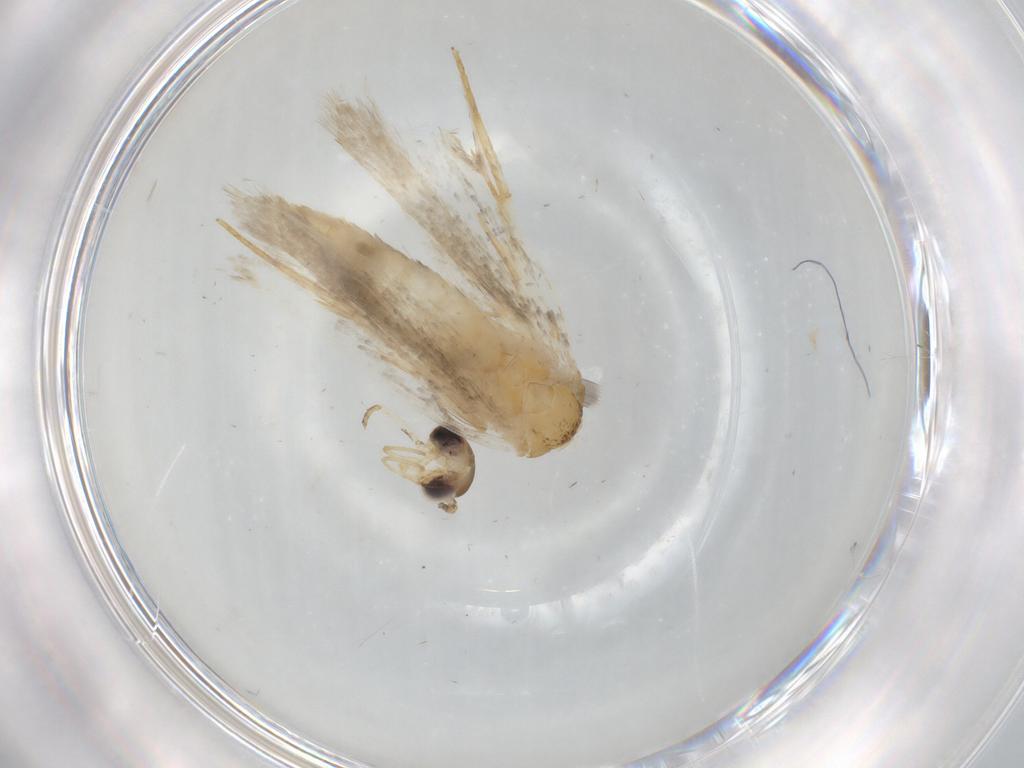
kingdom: Animalia
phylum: Arthropoda
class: Insecta
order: Lepidoptera
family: Autostichidae
